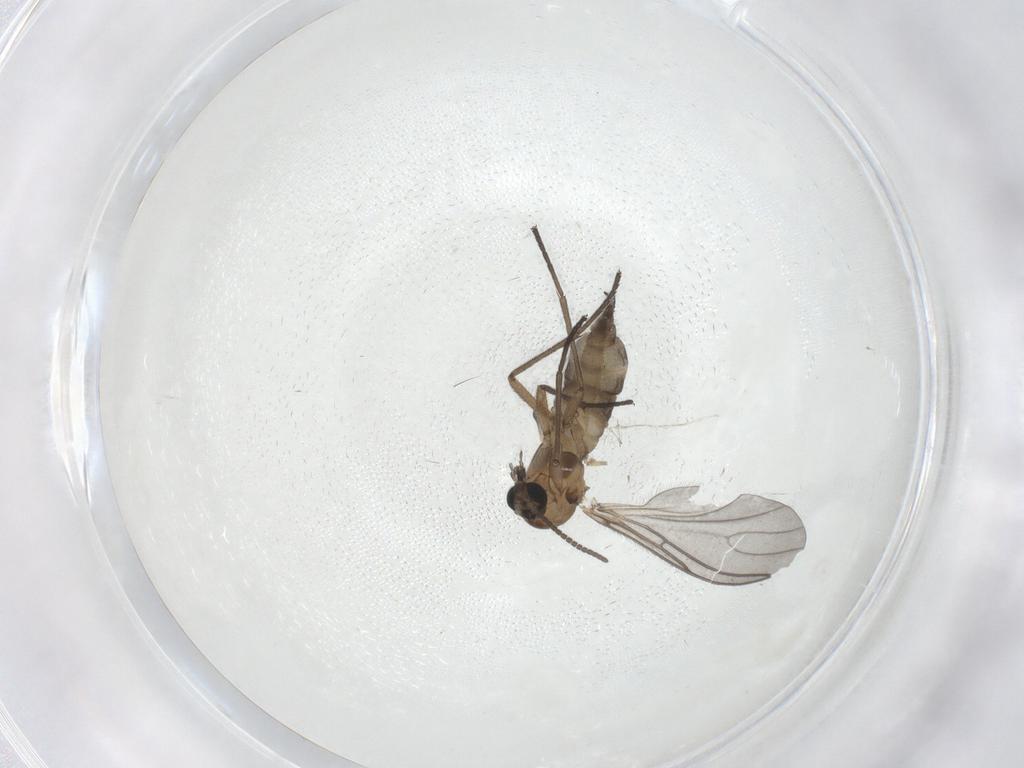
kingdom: Animalia
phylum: Arthropoda
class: Insecta
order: Diptera
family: Sciaridae
